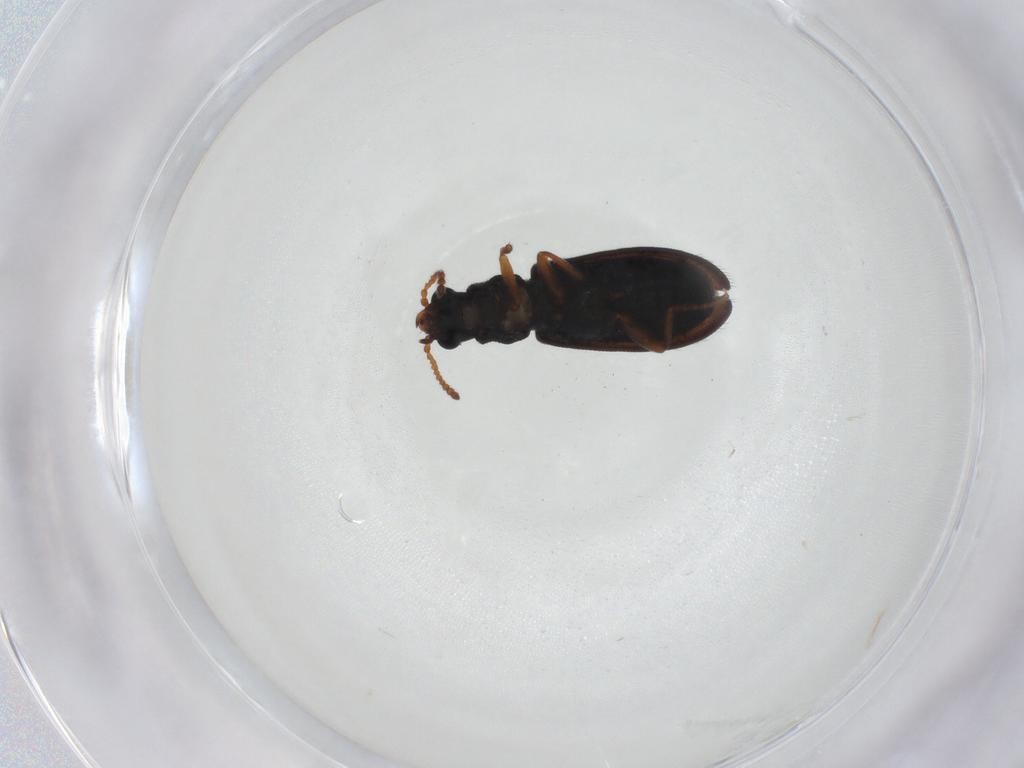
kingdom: Animalia
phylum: Arthropoda
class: Insecta
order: Coleoptera
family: Melyridae
